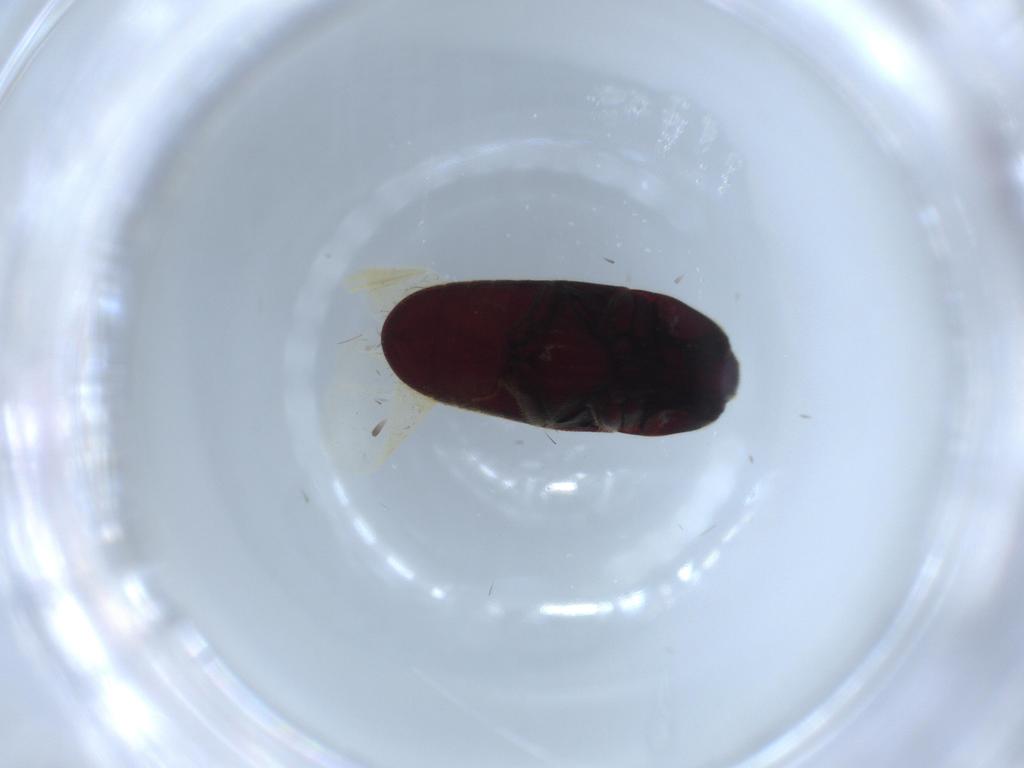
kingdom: Animalia
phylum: Arthropoda
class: Insecta
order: Coleoptera
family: Throscidae
